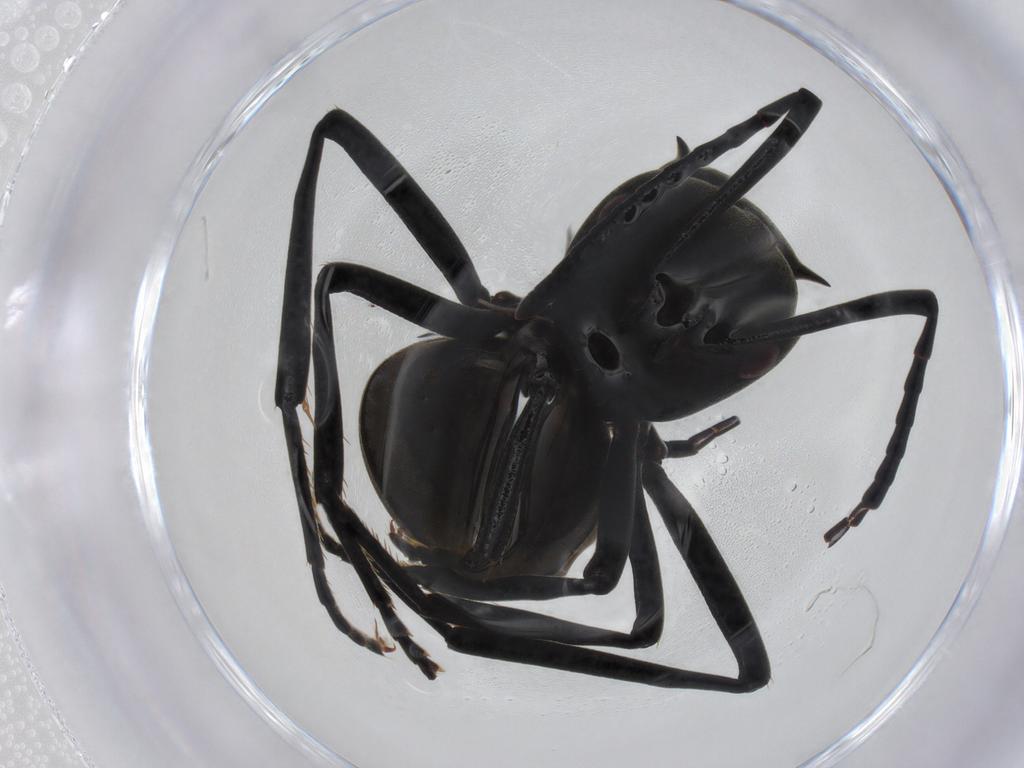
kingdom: Animalia
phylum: Arthropoda
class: Insecta
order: Hymenoptera
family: Formicidae
